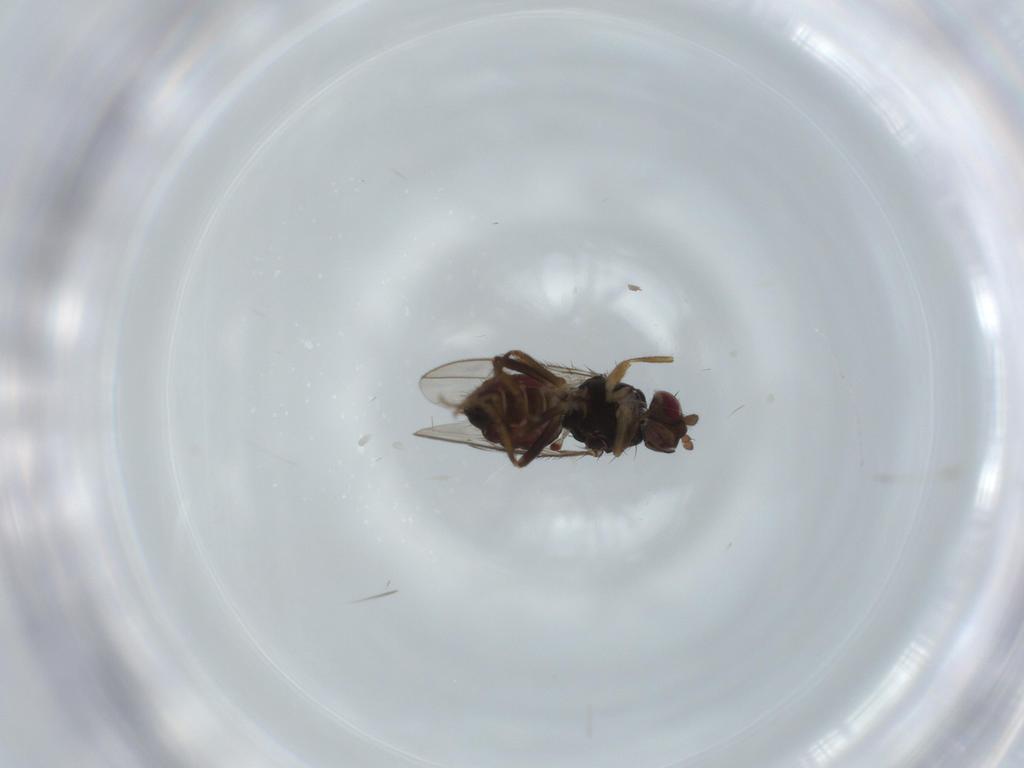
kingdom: Animalia
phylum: Arthropoda
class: Insecta
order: Diptera
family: Sphaeroceridae
